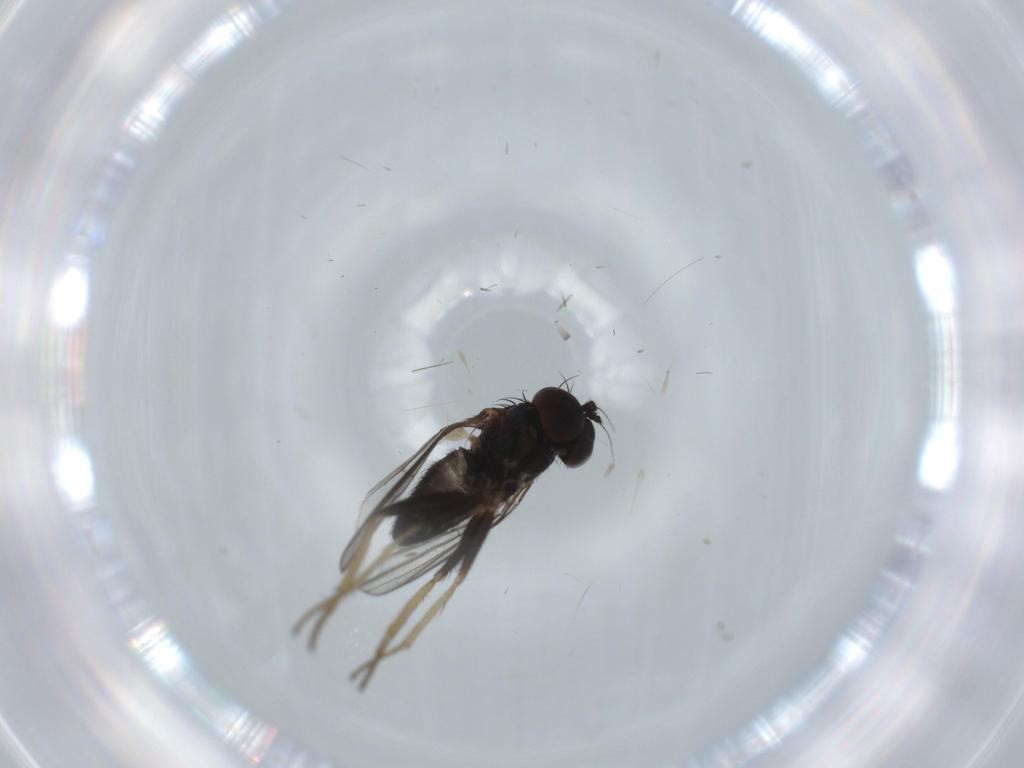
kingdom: Animalia
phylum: Arthropoda
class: Insecta
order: Diptera
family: Dolichopodidae
